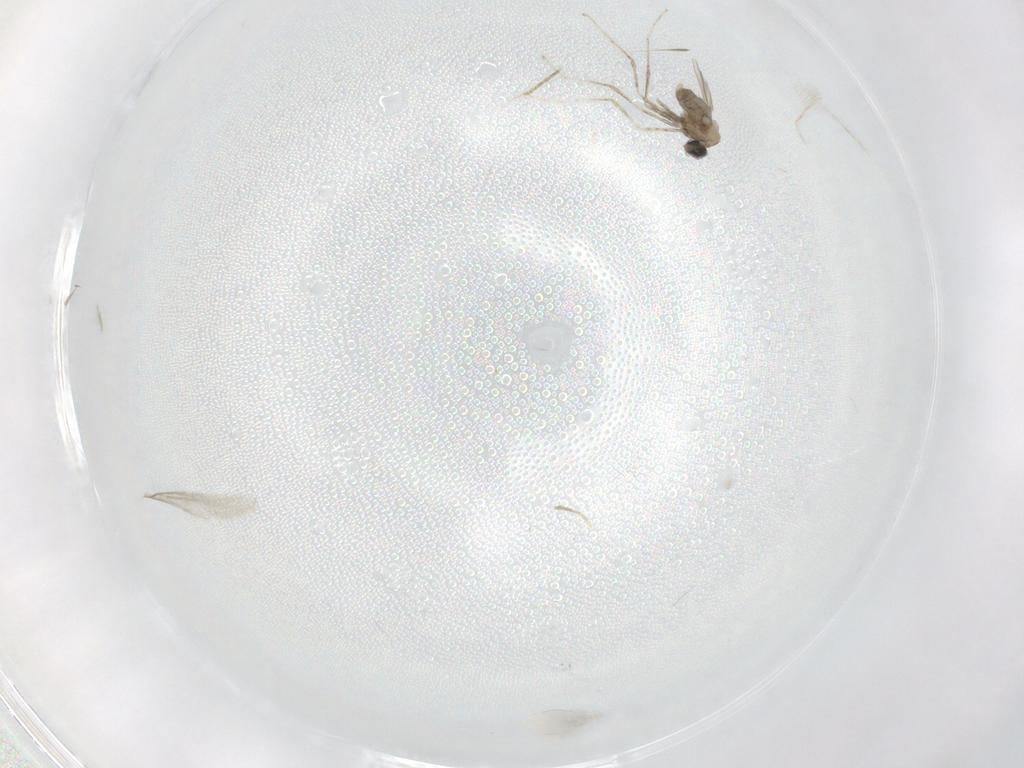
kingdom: Animalia
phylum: Arthropoda
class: Insecta
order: Diptera
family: Cecidomyiidae
